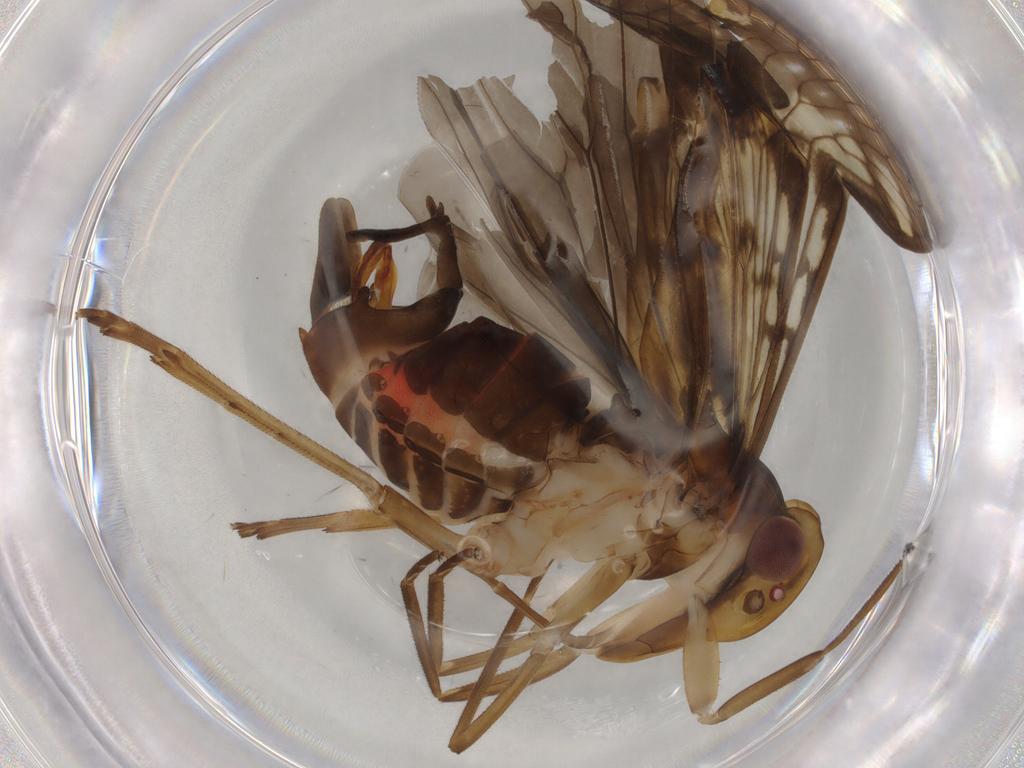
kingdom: Animalia
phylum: Arthropoda
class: Insecta
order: Hemiptera
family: Cixiidae
